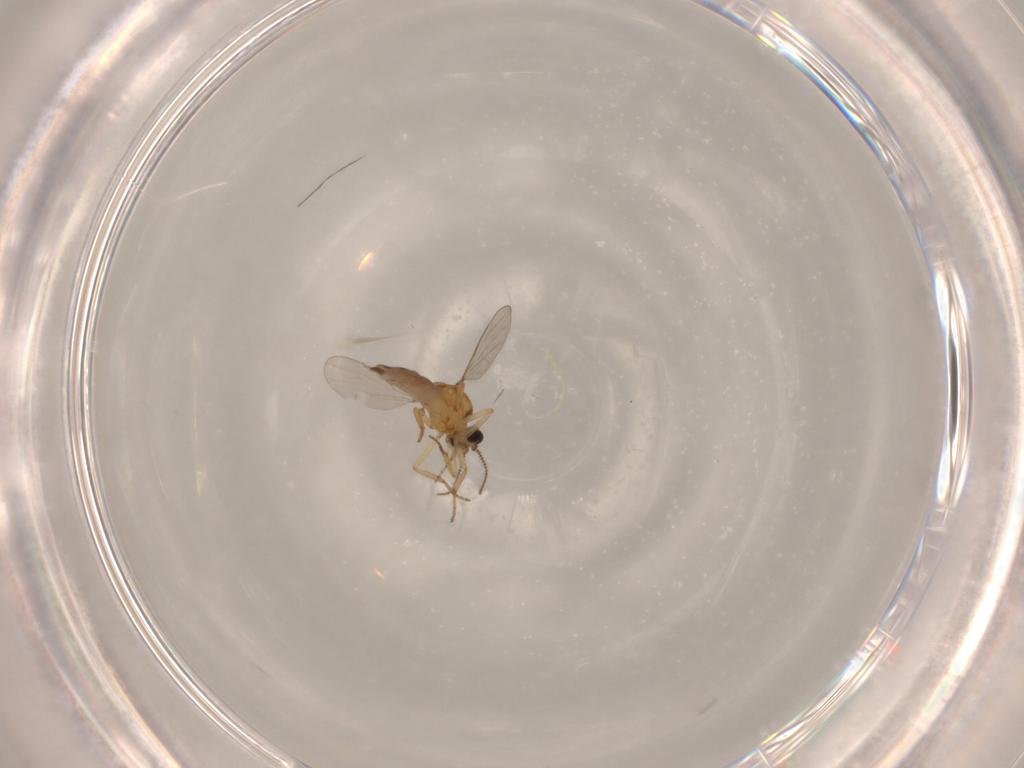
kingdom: Animalia
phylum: Arthropoda
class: Insecta
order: Diptera
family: Ceratopogonidae
